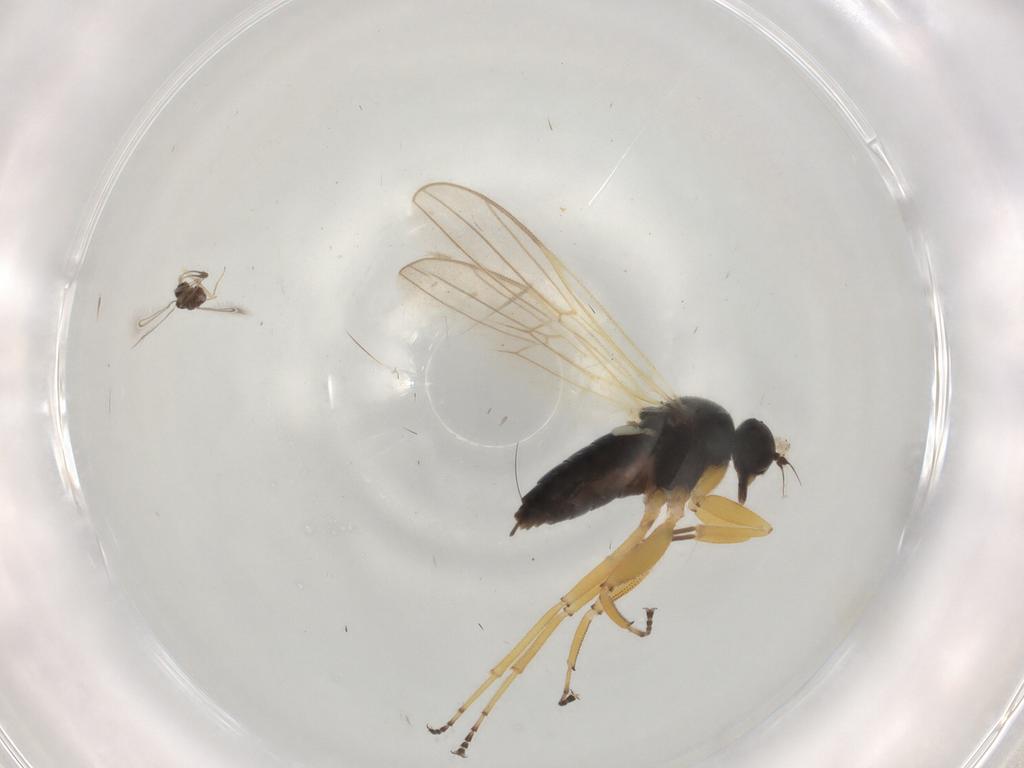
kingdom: Animalia
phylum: Arthropoda
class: Insecta
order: Diptera
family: Hybotidae
